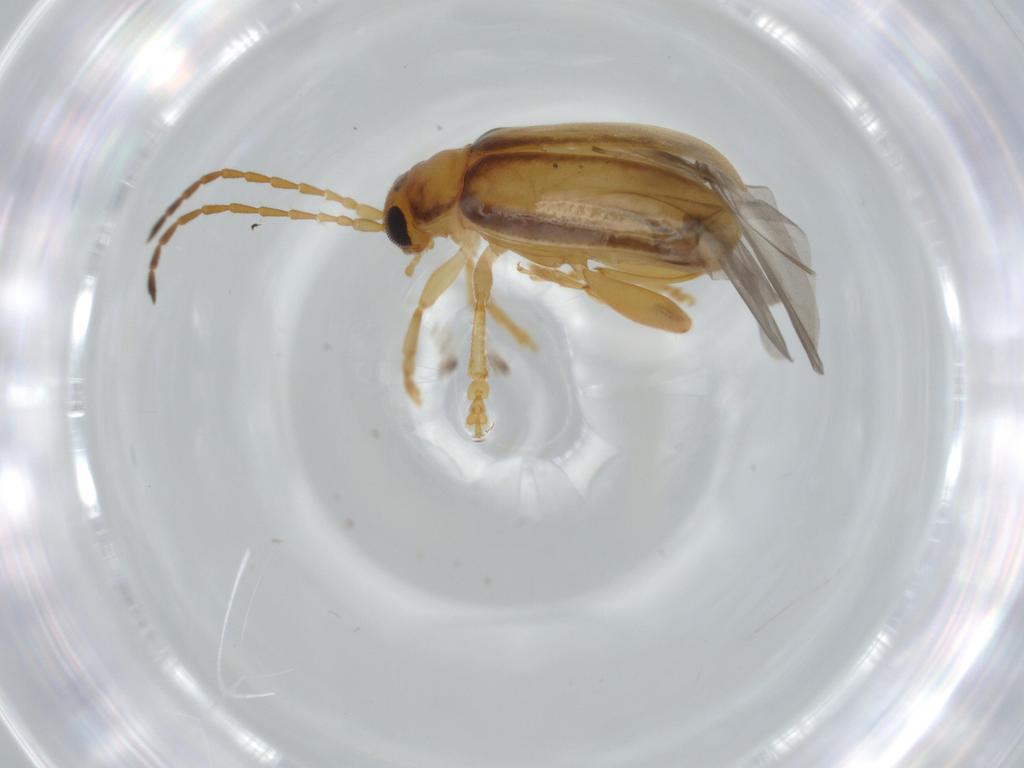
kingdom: Animalia
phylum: Arthropoda
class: Insecta
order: Coleoptera
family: Chrysomelidae
